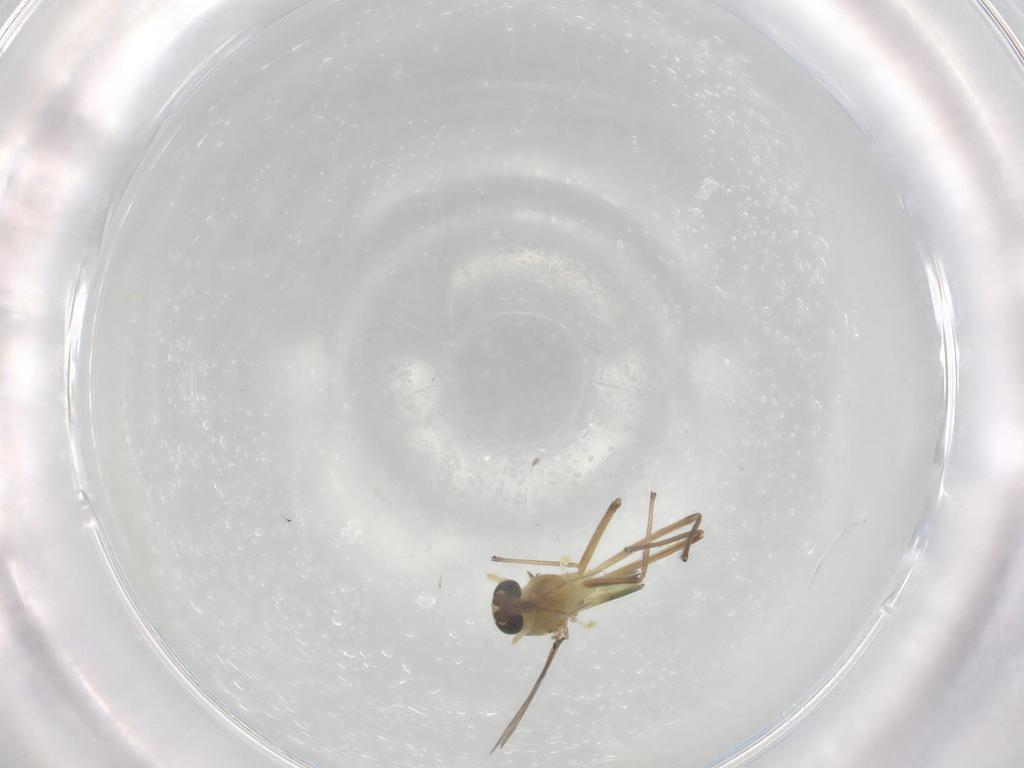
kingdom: Animalia
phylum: Arthropoda
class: Insecta
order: Diptera
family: Chironomidae
